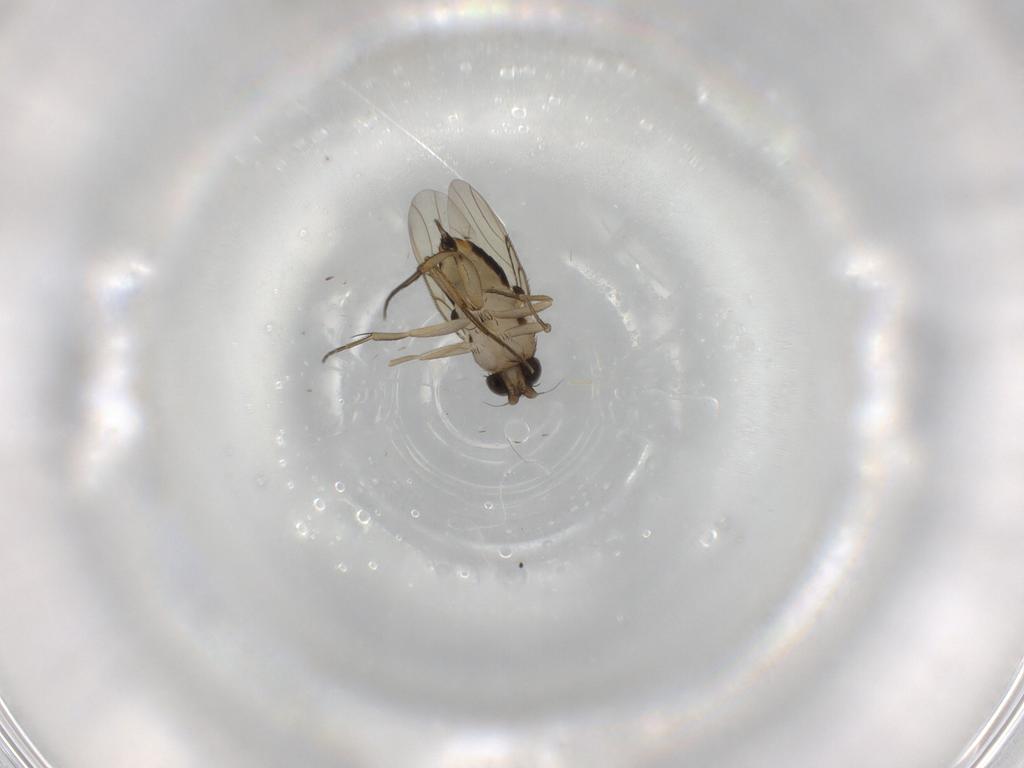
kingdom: Animalia
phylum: Arthropoda
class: Insecta
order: Diptera
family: Phoridae
